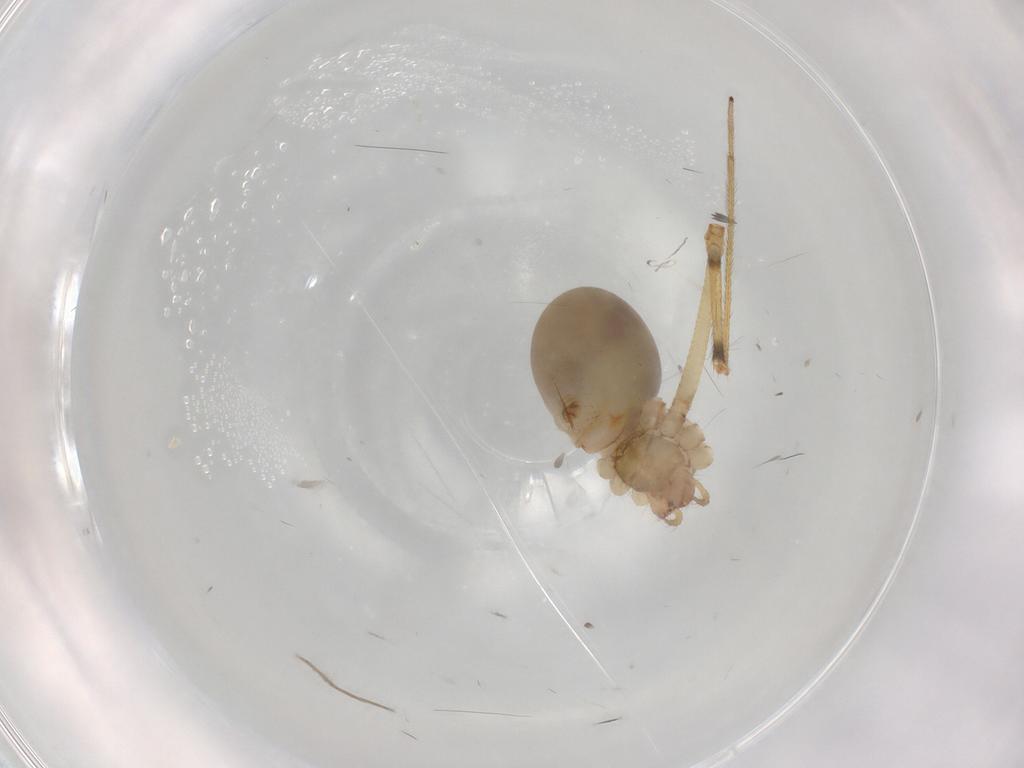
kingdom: Animalia
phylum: Arthropoda
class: Arachnida
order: Araneae
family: Pholcidae
